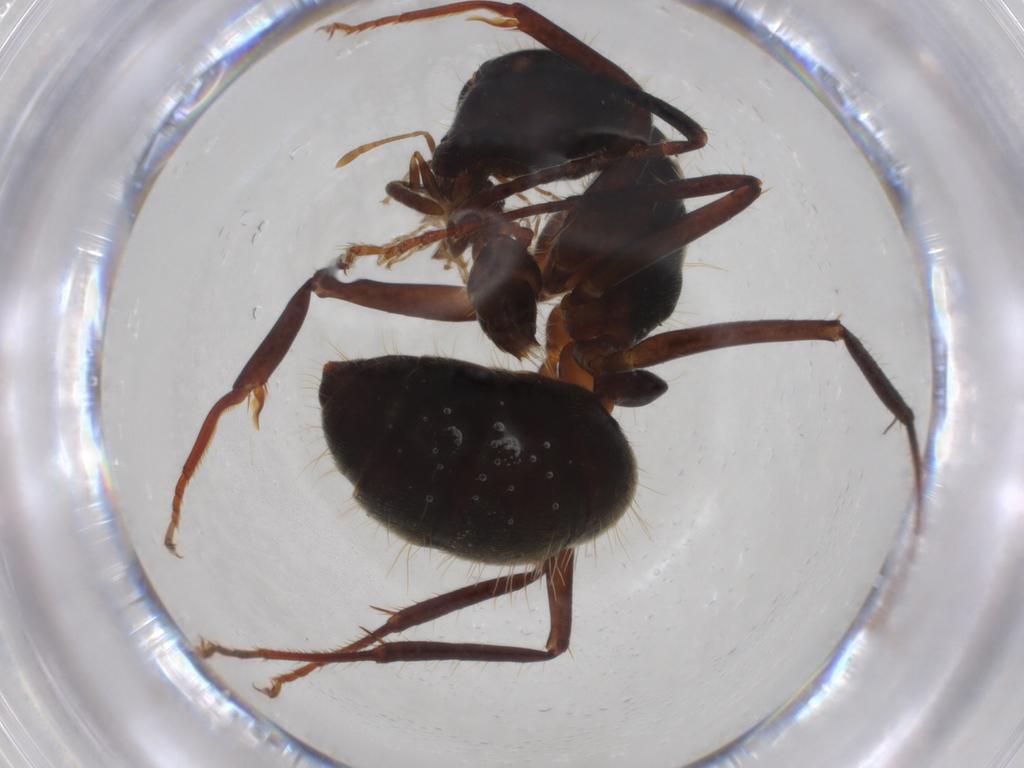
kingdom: Animalia
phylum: Arthropoda
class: Insecta
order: Hymenoptera
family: Formicidae
